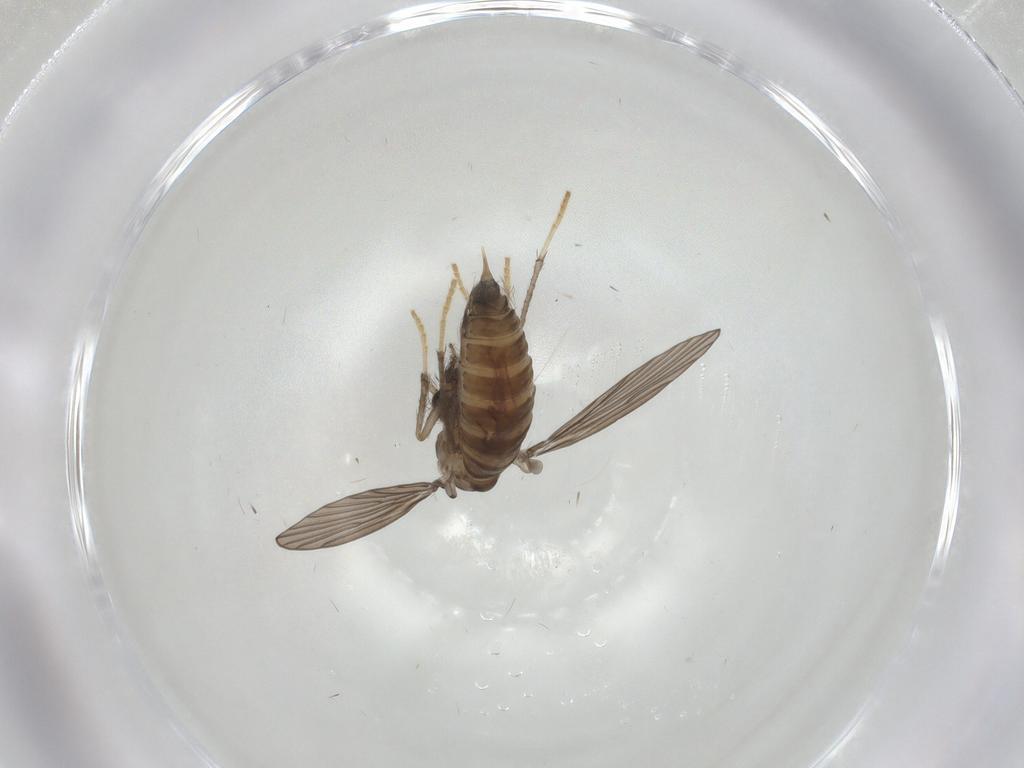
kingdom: Animalia
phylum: Arthropoda
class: Insecta
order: Diptera
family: Psychodidae
